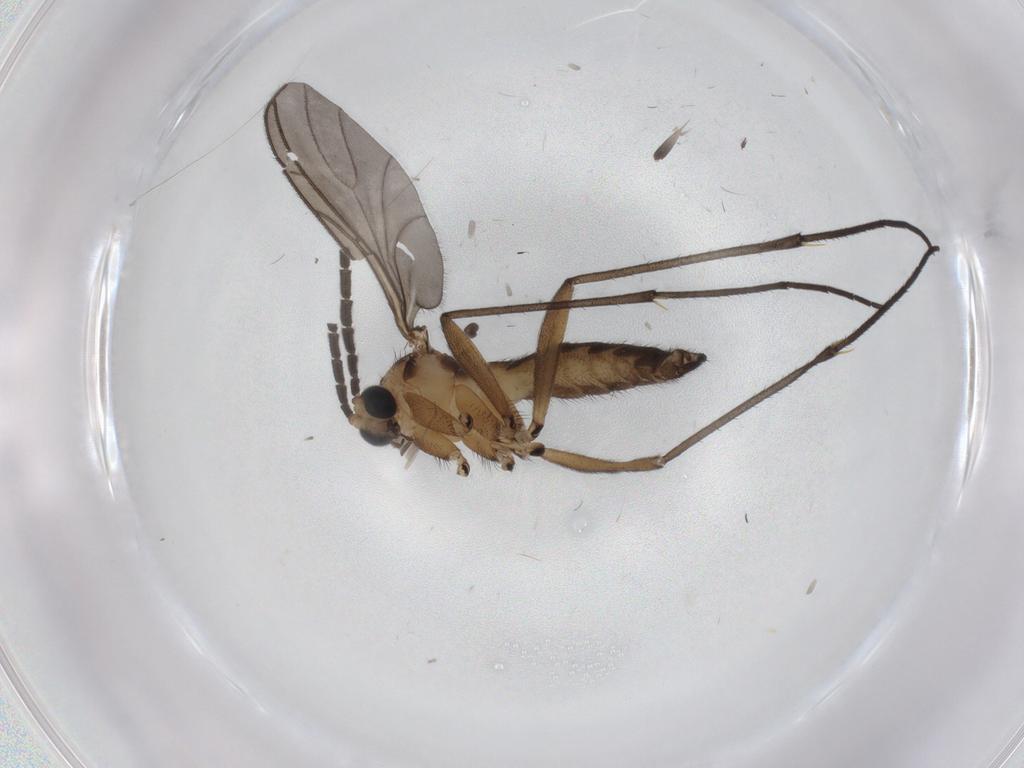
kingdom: Animalia
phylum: Arthropoda
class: Insecta
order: Diptera
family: Sciaridae
